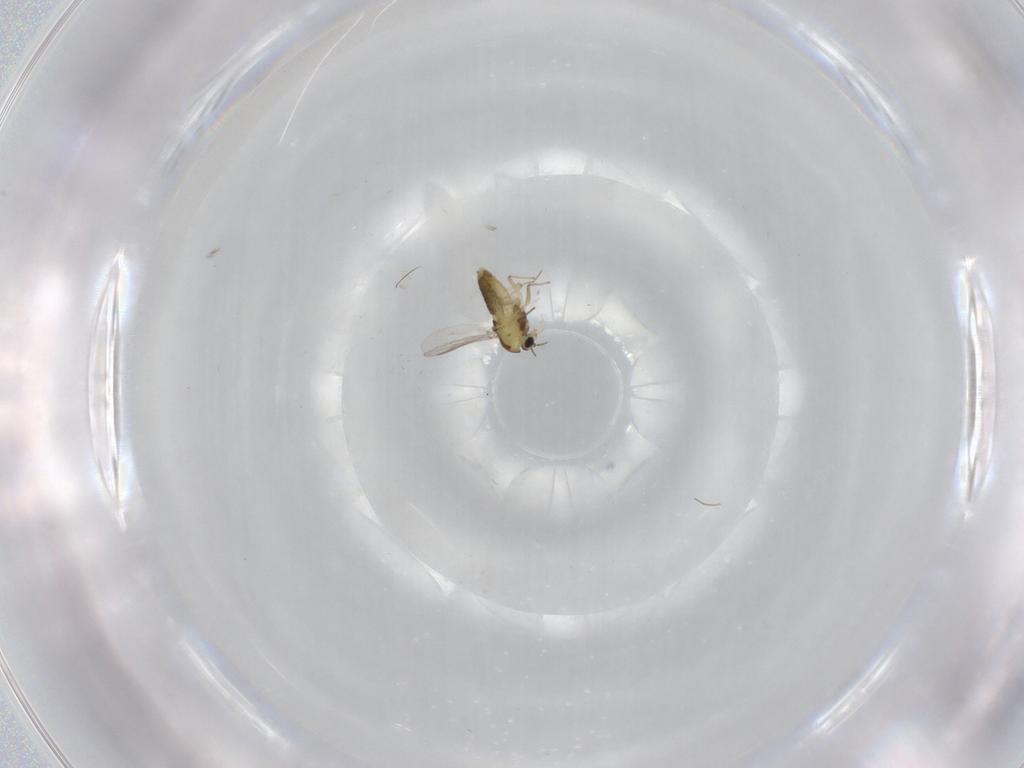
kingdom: Animalia
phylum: Arthropoda
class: Insecta
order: Diptera
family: Chironomidae
